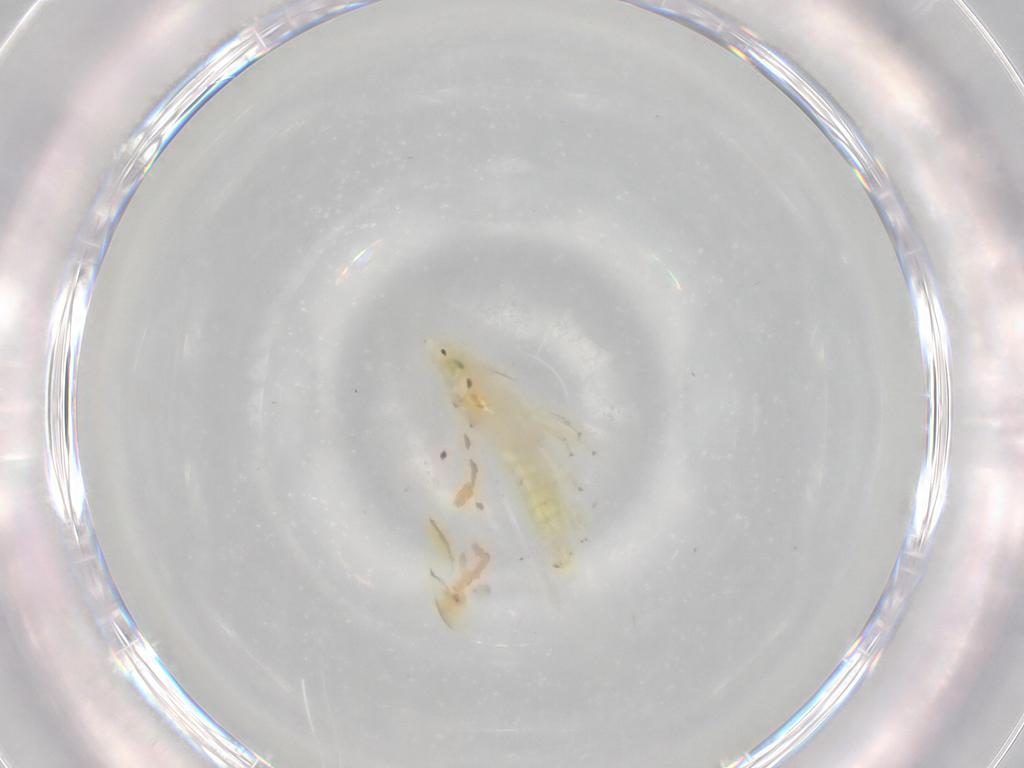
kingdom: Animalia
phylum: Arthropoda
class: Insecta
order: Hemiptera
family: Cicadellidae
